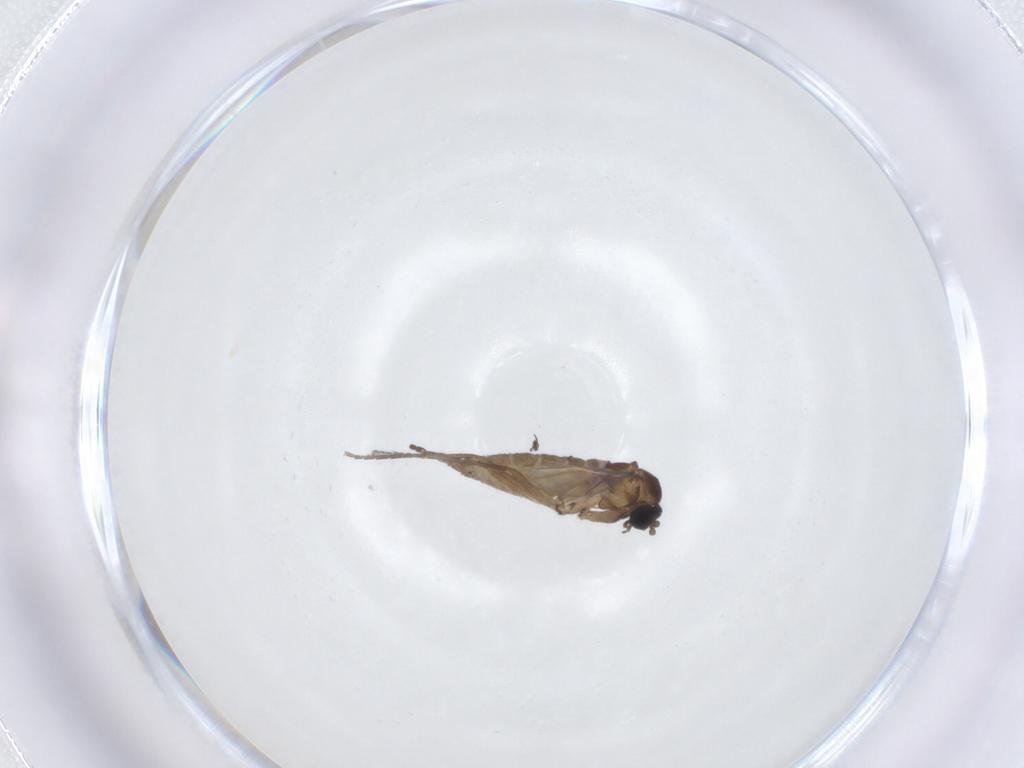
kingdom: Animalia
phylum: Arthropoda
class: Insecta
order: Diptera
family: Sciaridae
